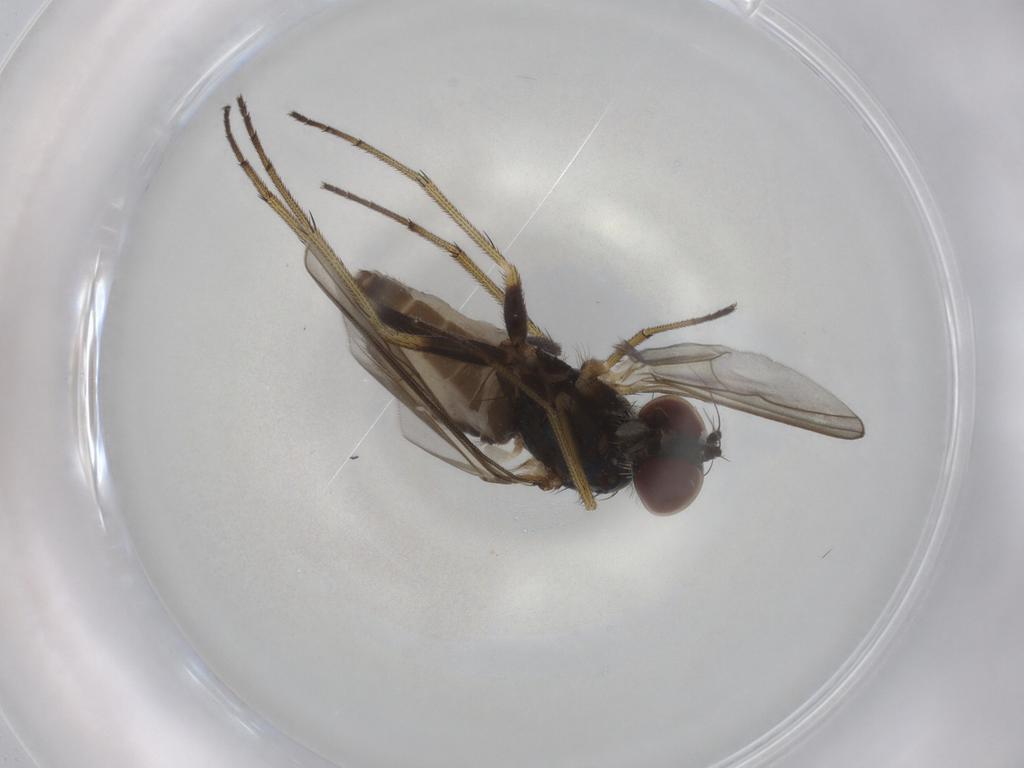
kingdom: Animalia
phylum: Arthropoda
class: Insecta
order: Diptera
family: Dolichopodidae
